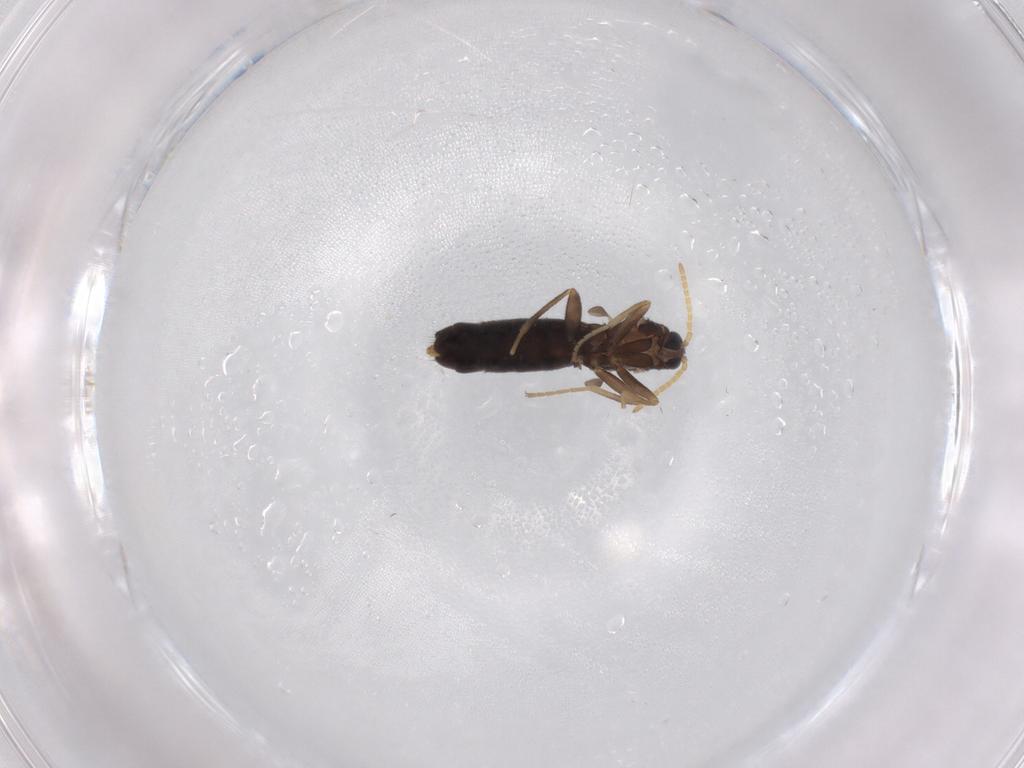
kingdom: Animalia
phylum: Arthropoda
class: Insecta
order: Diptera
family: Scatopsidae
